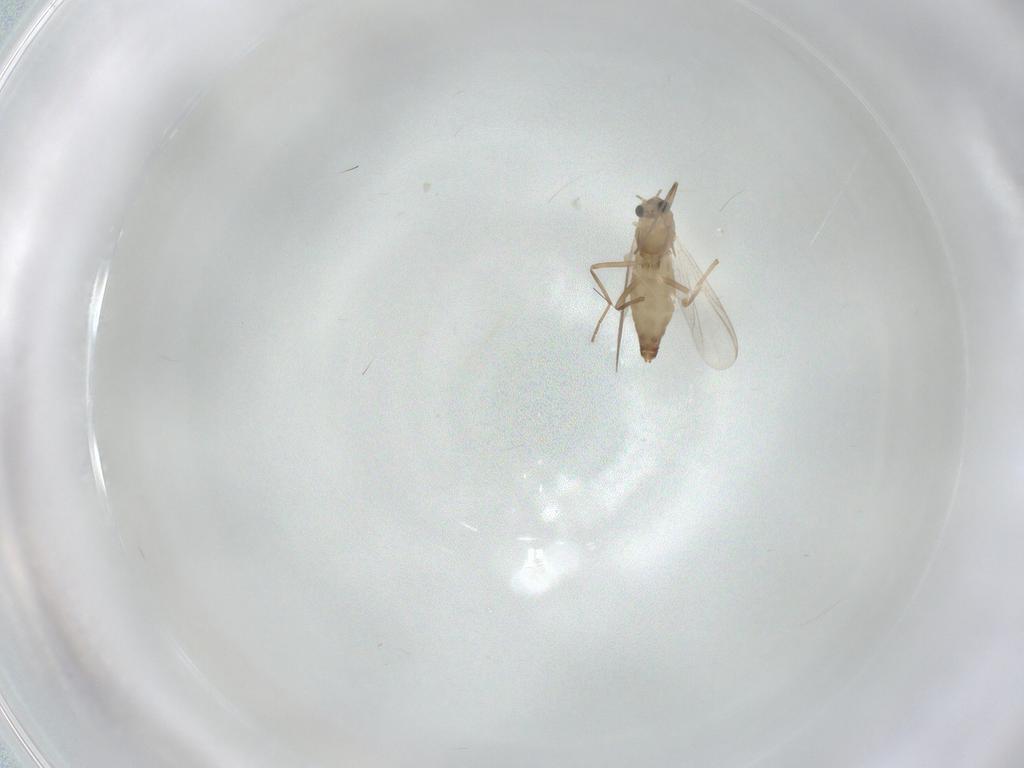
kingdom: Animalia
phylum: Arthropoda
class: Insecta
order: Diptera
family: Chironomidae
